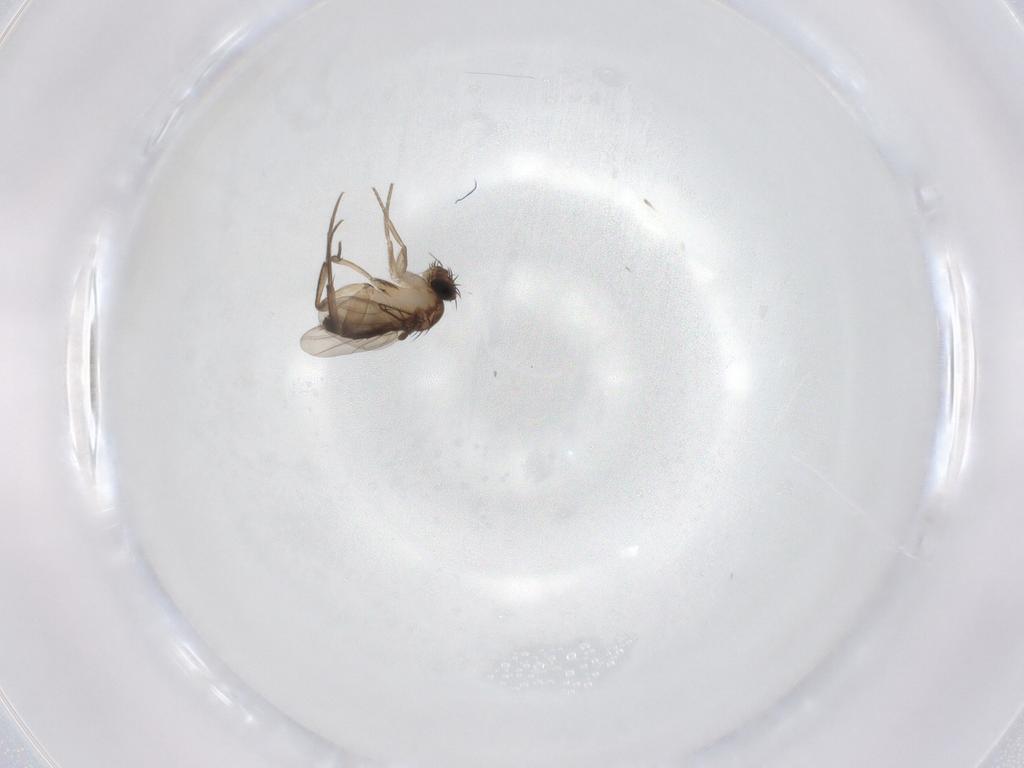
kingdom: Animalia
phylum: Arthropoda
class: Insecta
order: Diptera
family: Phoridae
